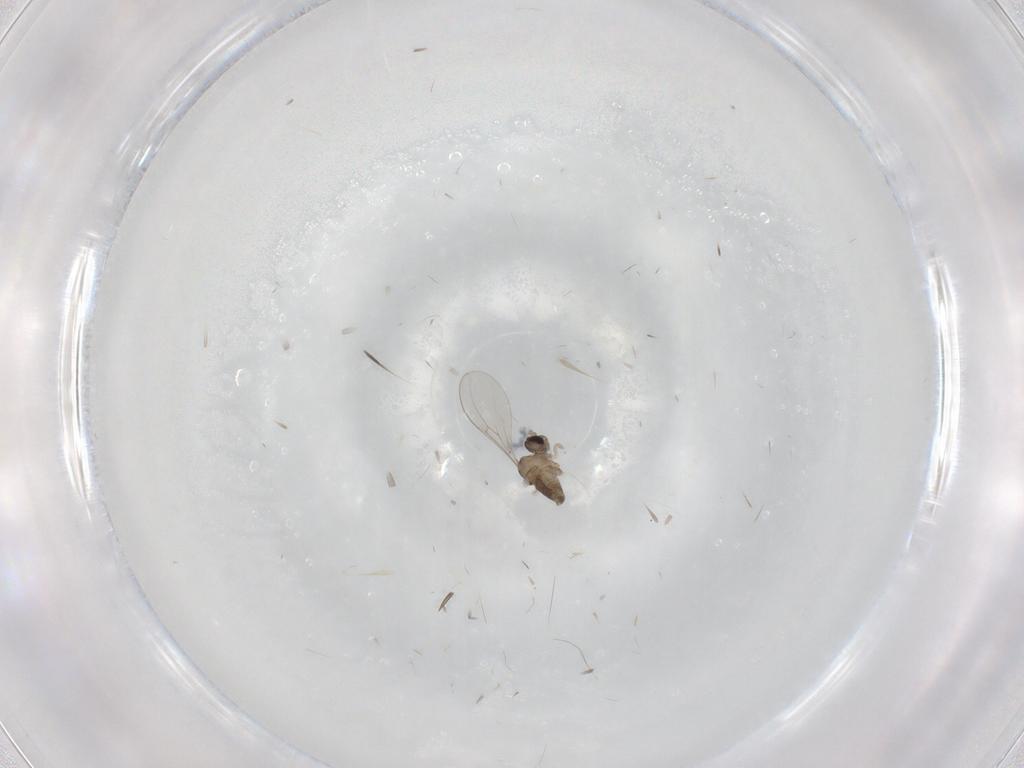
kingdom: Animalia
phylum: Arthropoda
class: Insecta
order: Diptera
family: Cecidomyiidae
